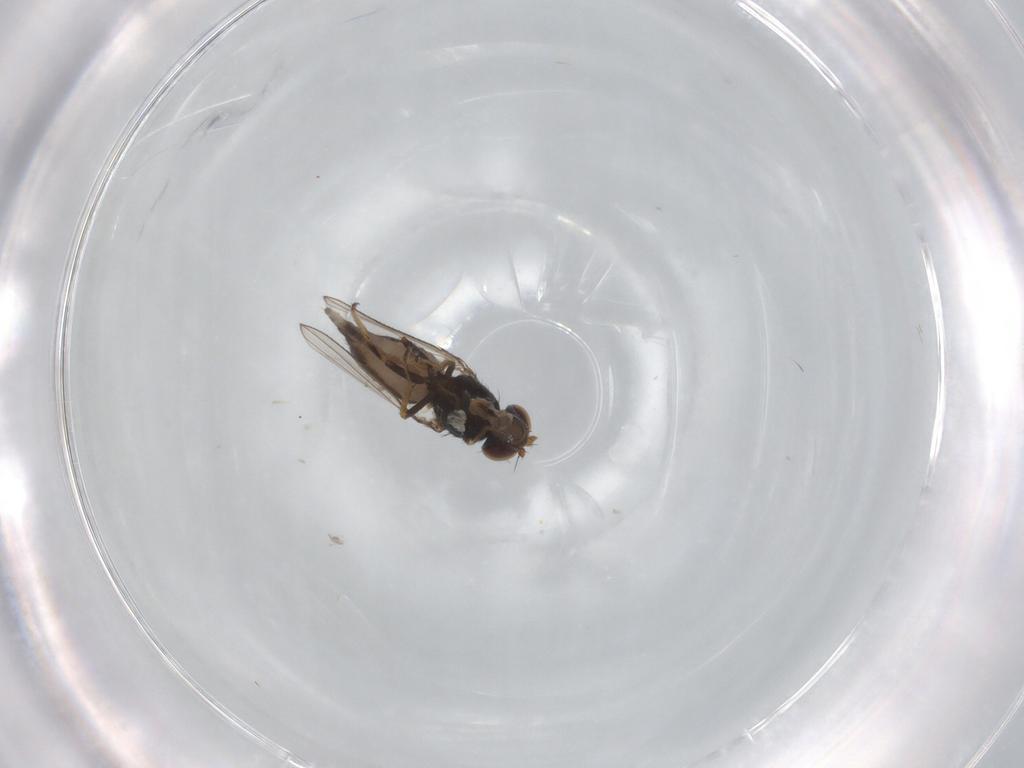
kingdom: Animalia
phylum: Arthropoda
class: Insecta
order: Diptera
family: Ephydridae
